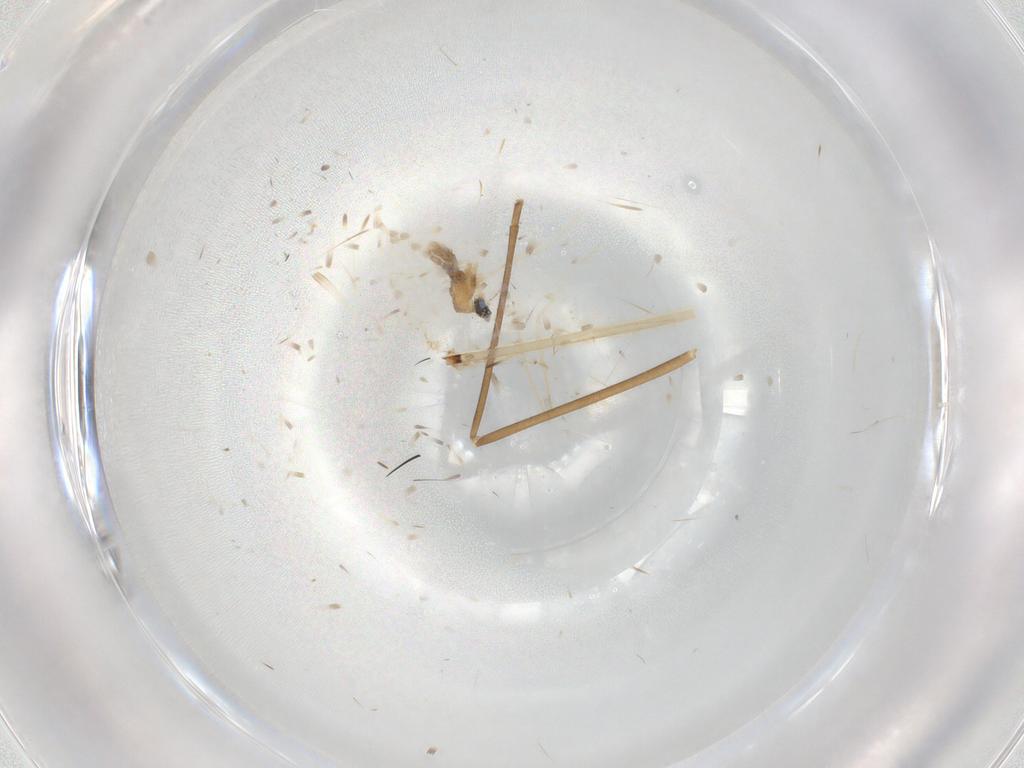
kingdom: Animalia
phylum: Arthropoda
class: Insecta
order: Diptera
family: Cecidomyiidae
